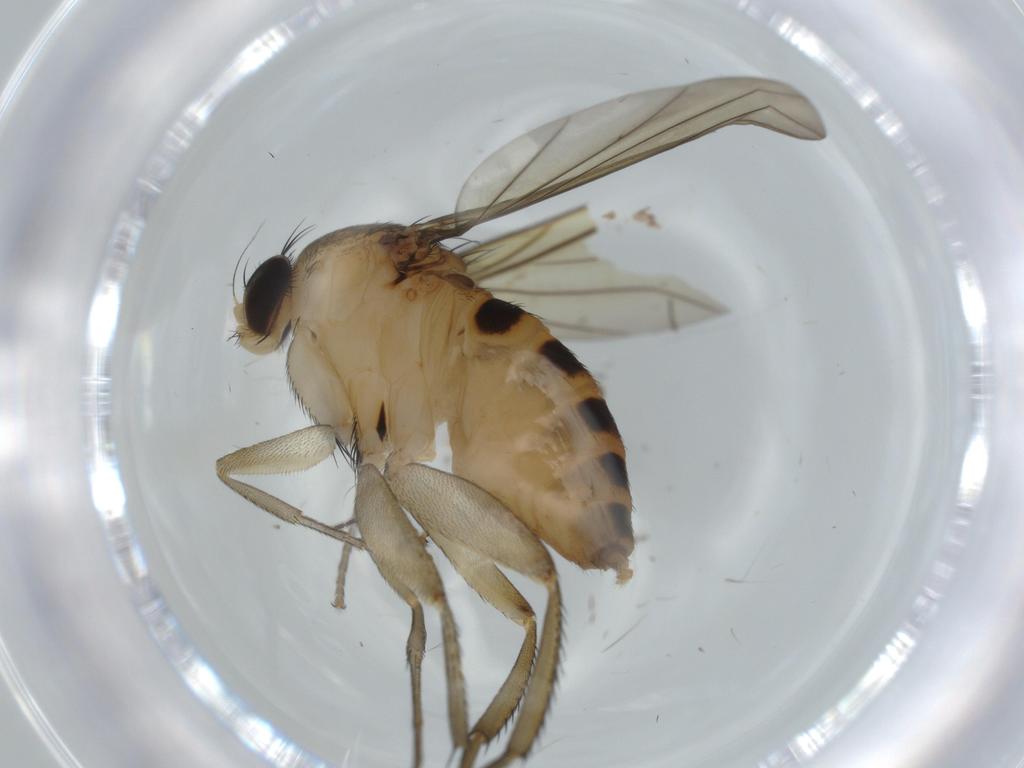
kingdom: Animalia
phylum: Arthropoda
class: Insecta
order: Diptera
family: Phoridae
